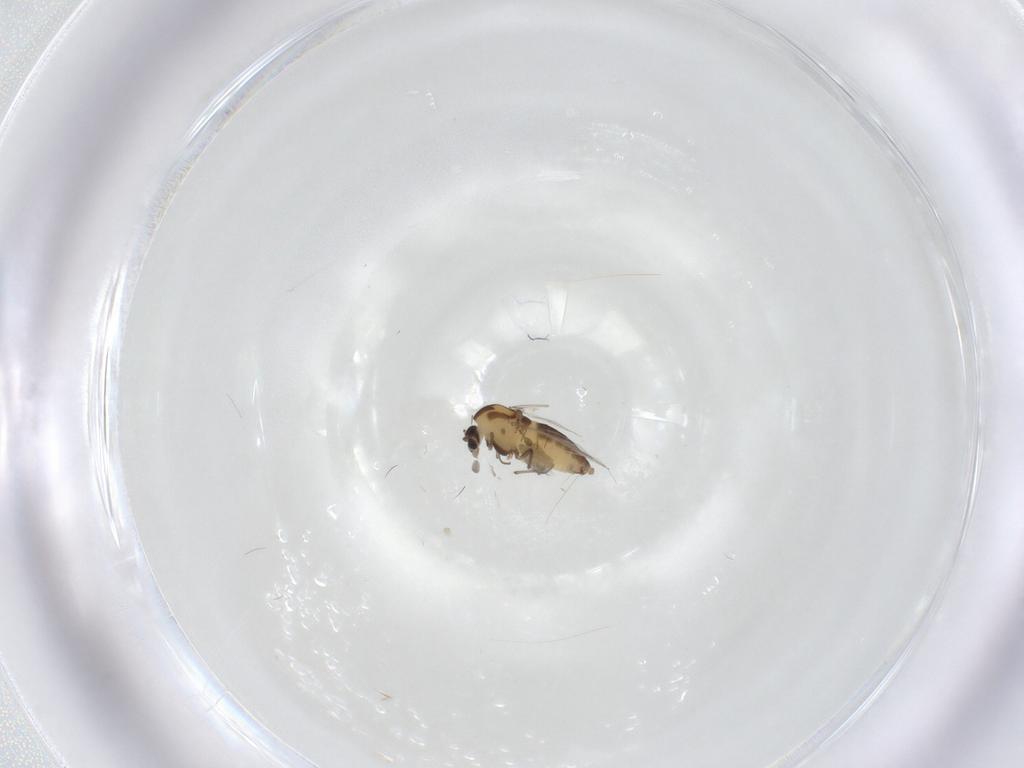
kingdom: Animalia
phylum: Arthropoda
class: Insecta
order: Diptera
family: Chironomidae
